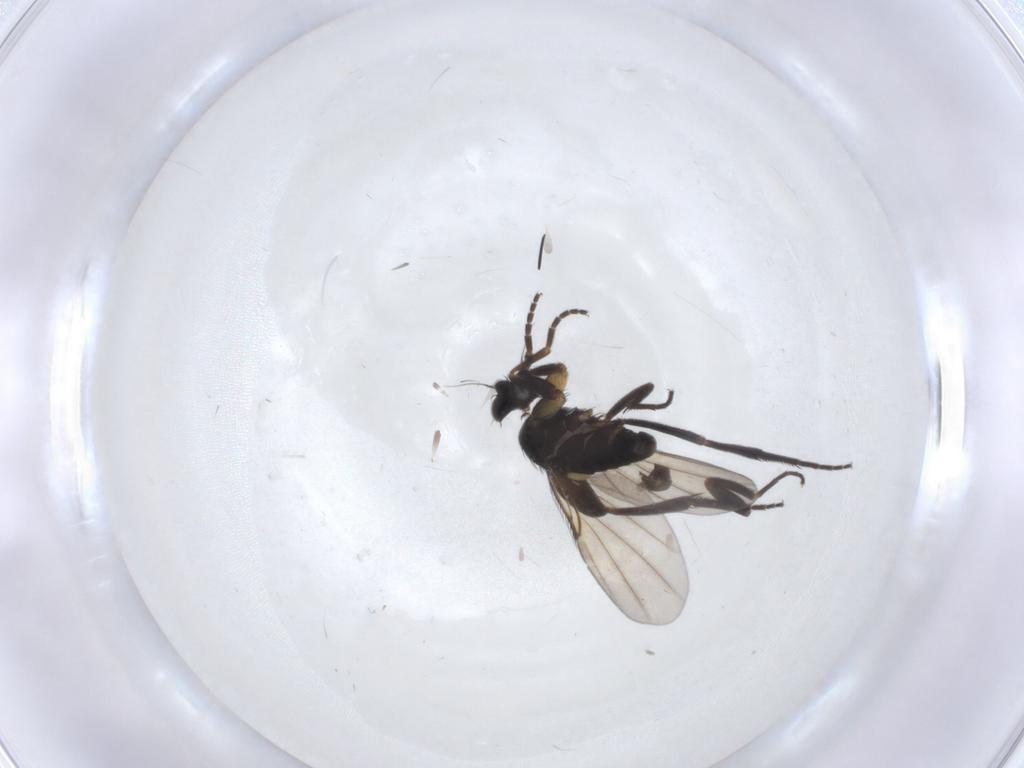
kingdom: Animalia
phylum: Arthropoda
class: Insecta
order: Diptera
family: Phoridae
